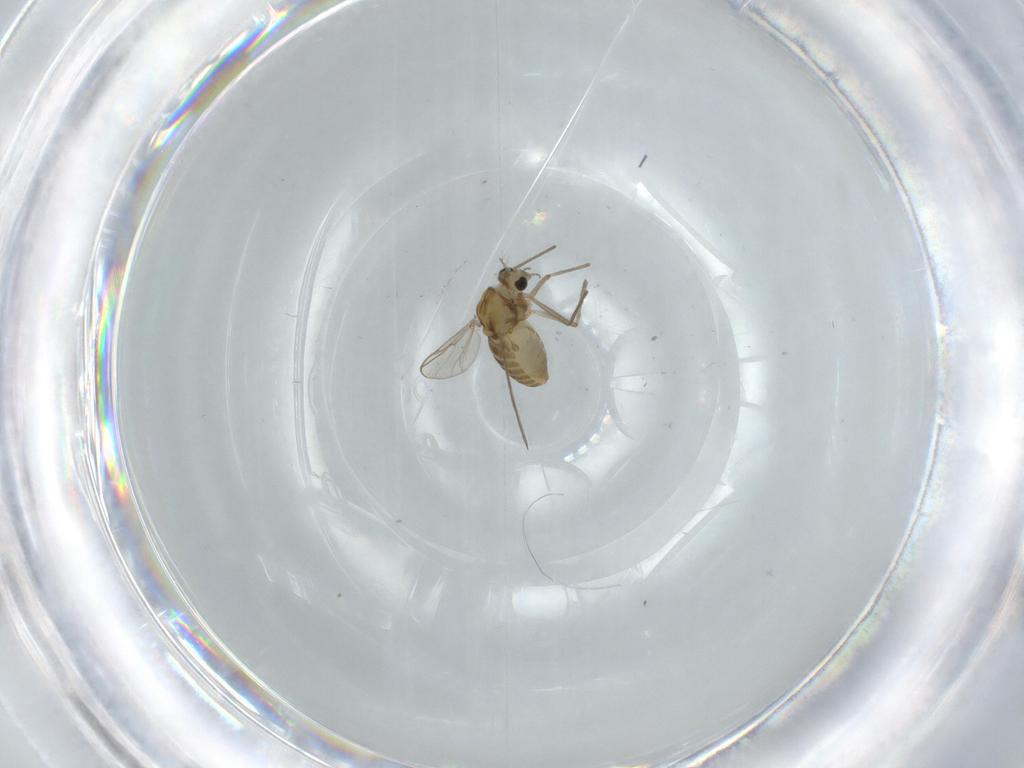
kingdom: Animalia
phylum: Arthropoda
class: Insecta
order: Diptera
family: Chironomidae
